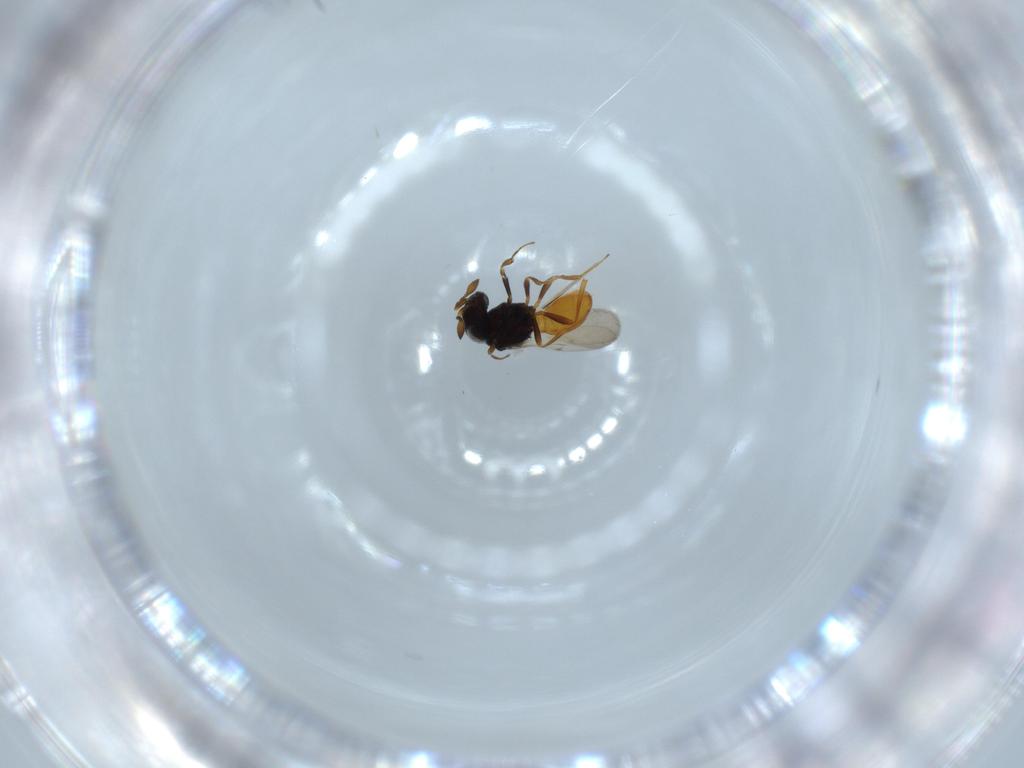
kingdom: Animalia
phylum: Arthropoda
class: Insecta
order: Hymenoptera
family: Scelionidae
